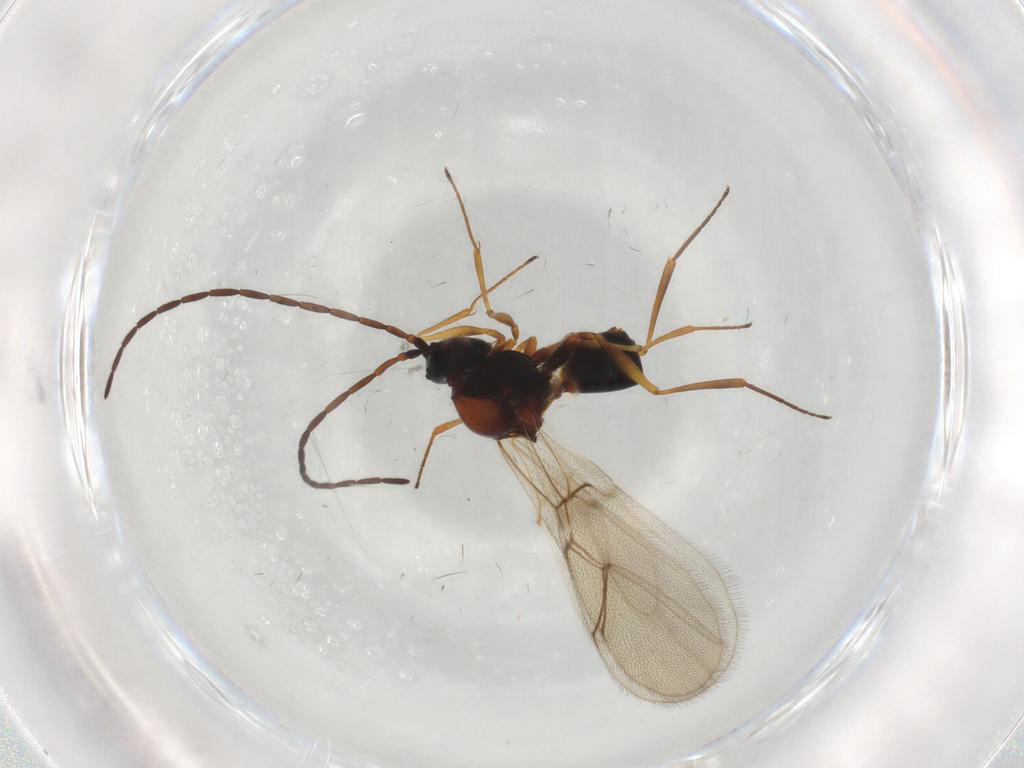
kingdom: Animalia
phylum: Arthropoda
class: Insecta
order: Hymenoptera
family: Figitidae
